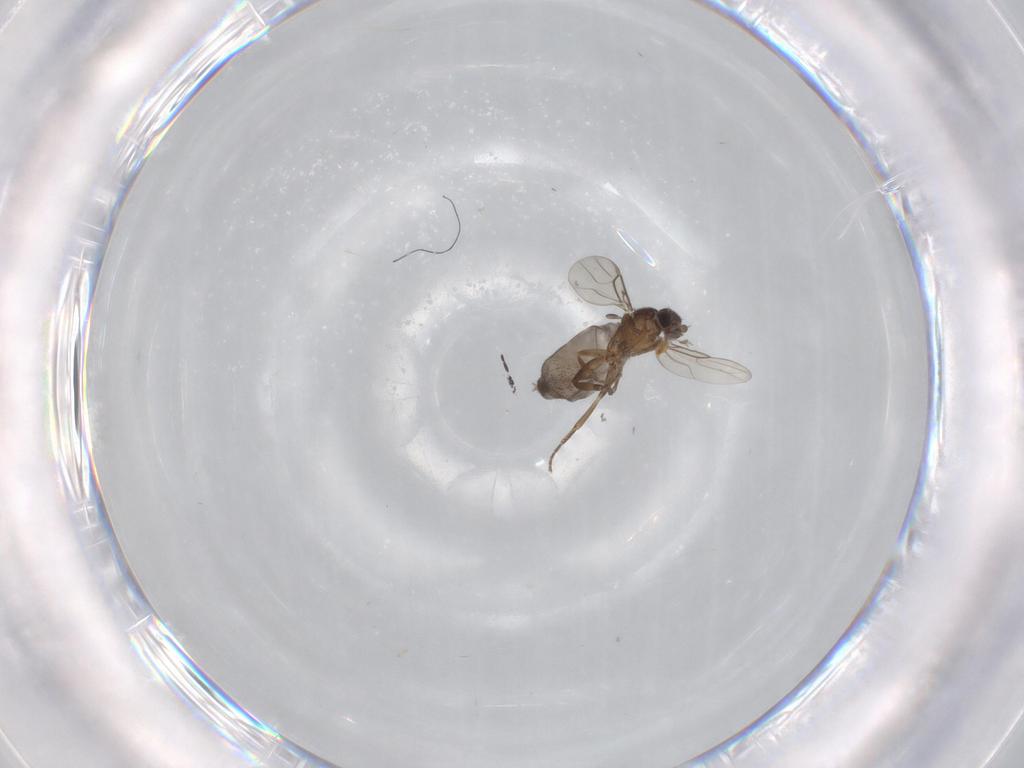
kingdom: Animalia
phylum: Arthropoda
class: Insecta
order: Diptera
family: Phoridae
